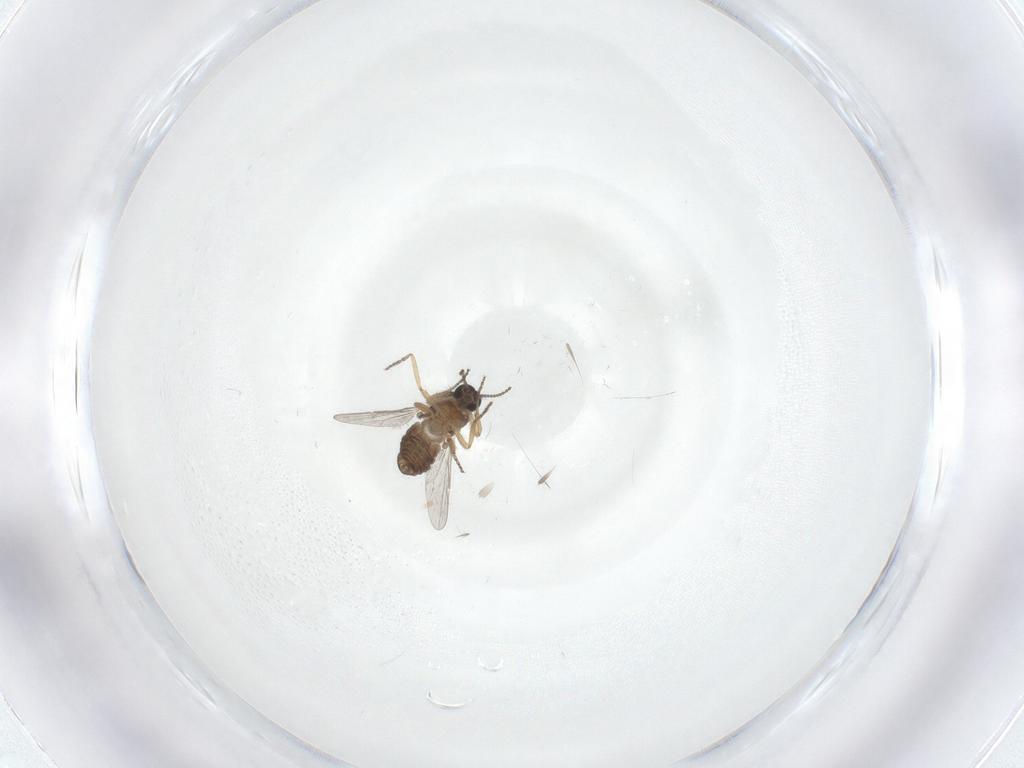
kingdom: Animalia
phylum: Arthropoda
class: Insecta
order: Diptera
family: Ceratopogonidae
